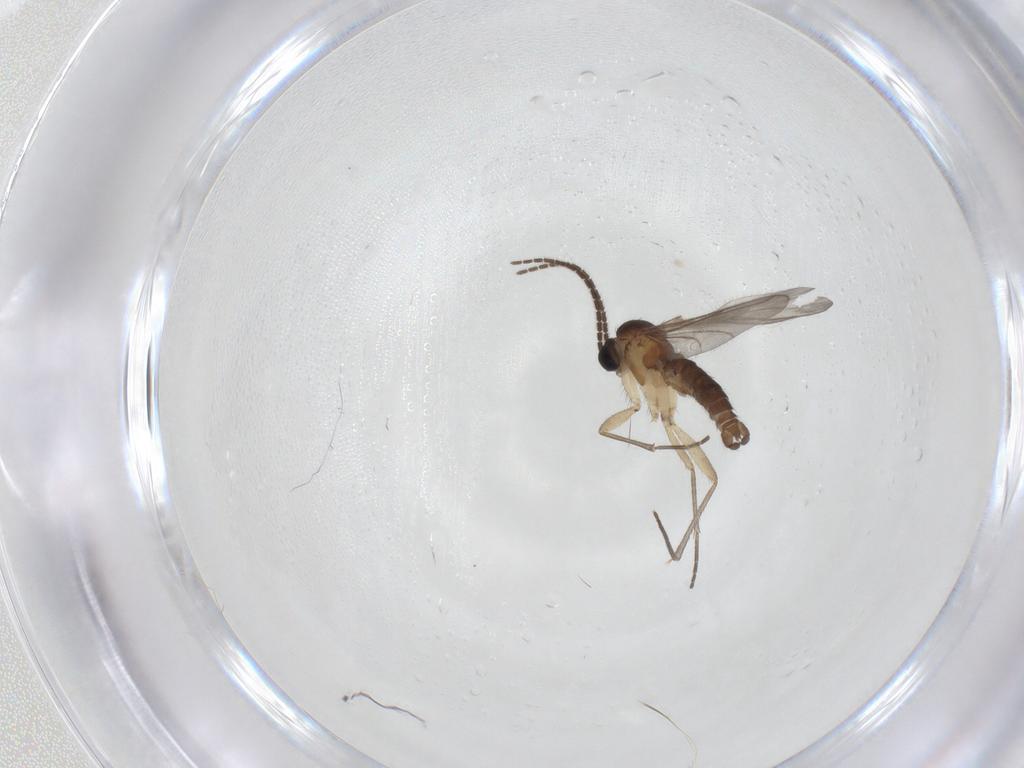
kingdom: Animalia
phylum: Arthropoda
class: Insecta
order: Diptera
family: Sciaridae
